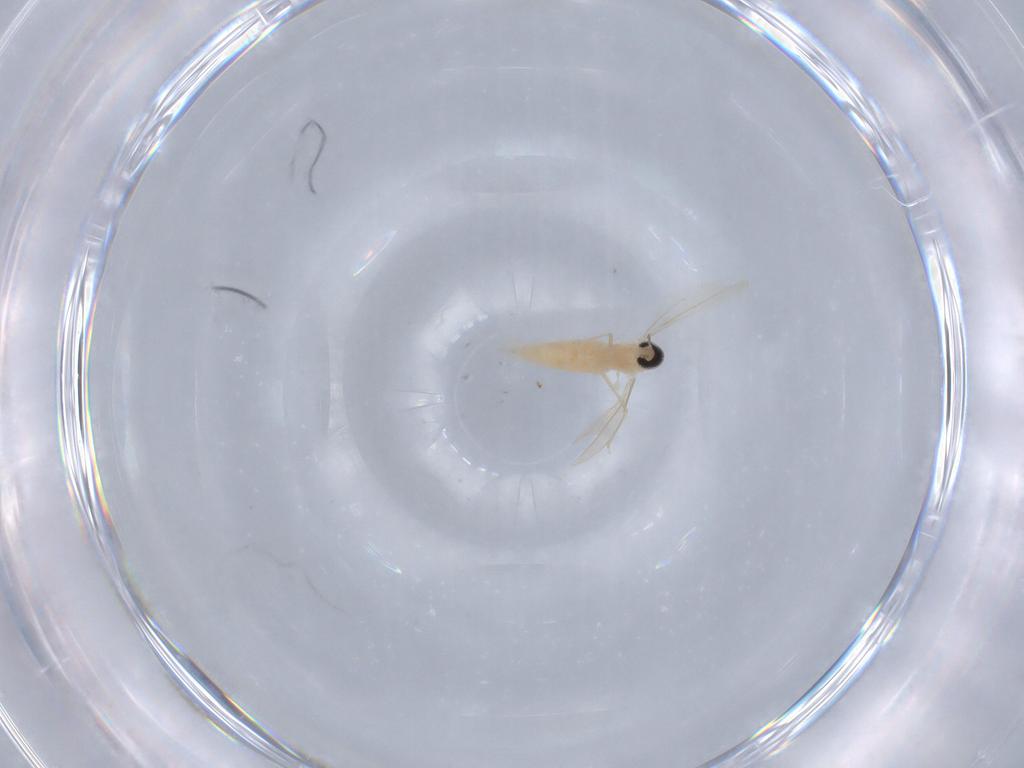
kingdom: Animalia
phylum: Arthropoda
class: Insecta
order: Diptera
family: Cecidomyiidae
